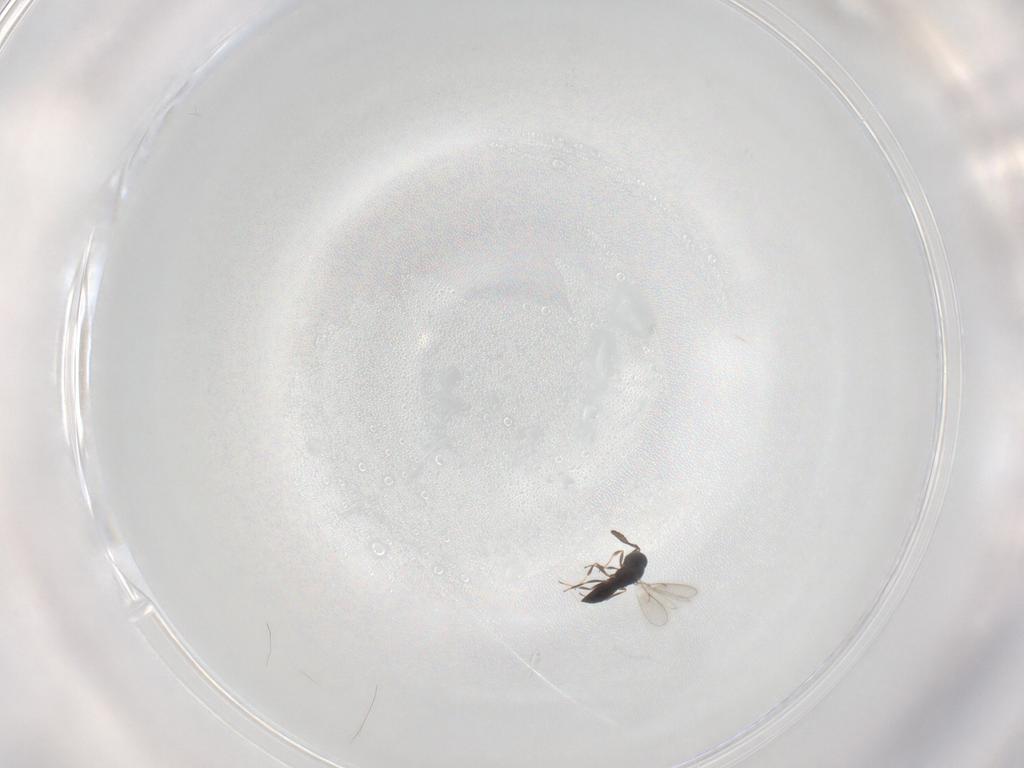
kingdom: Animalia
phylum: Arthropoda
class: Insecta
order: Hymenoptera
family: Scelionidae
